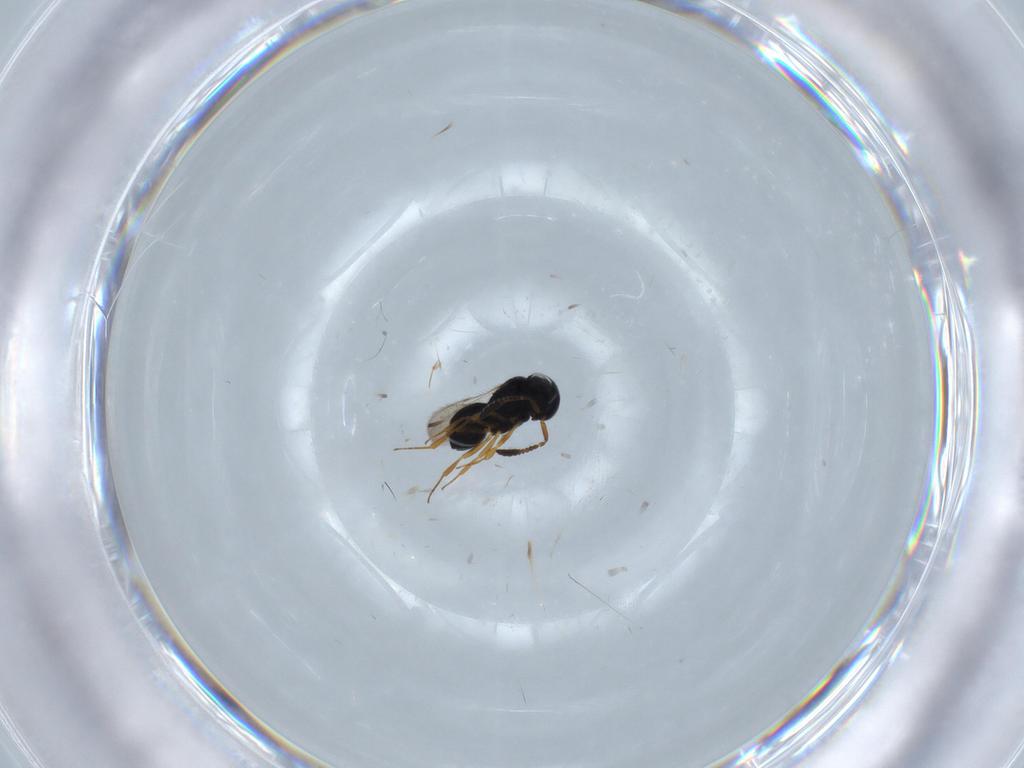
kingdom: Animalia
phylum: Arthropoda
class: Insecta
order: Hymenoptera
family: Scelionidae
